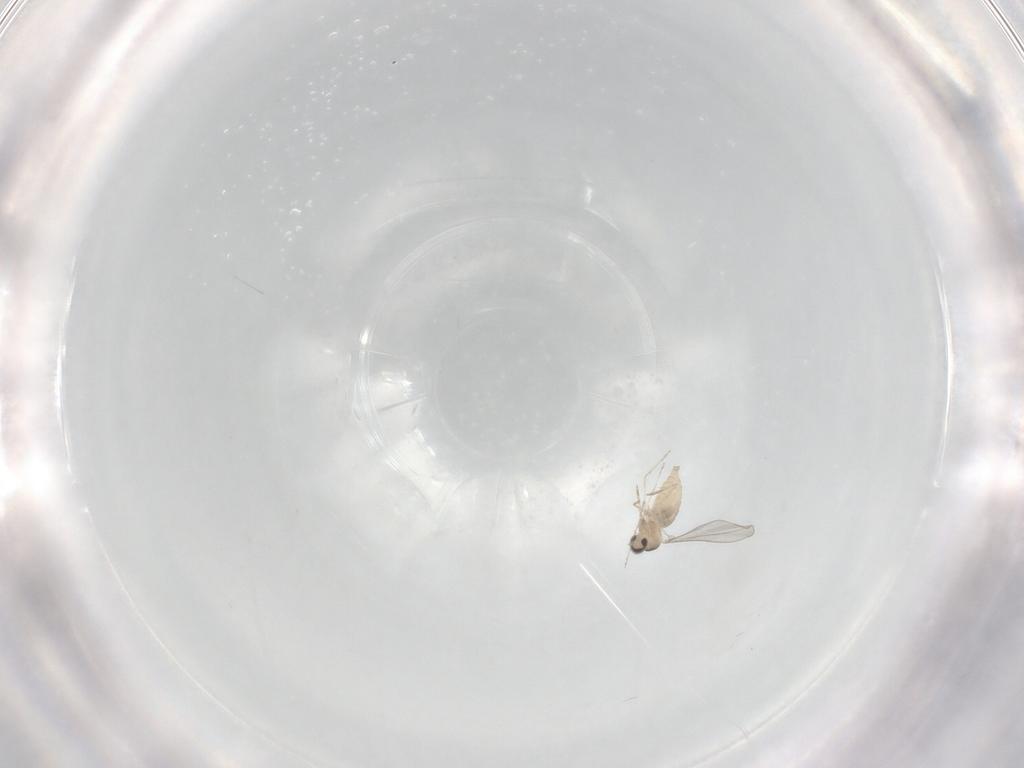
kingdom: Animalia
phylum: Arthropoda
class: Insecta
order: Diptera
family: Cecidomyiidae
